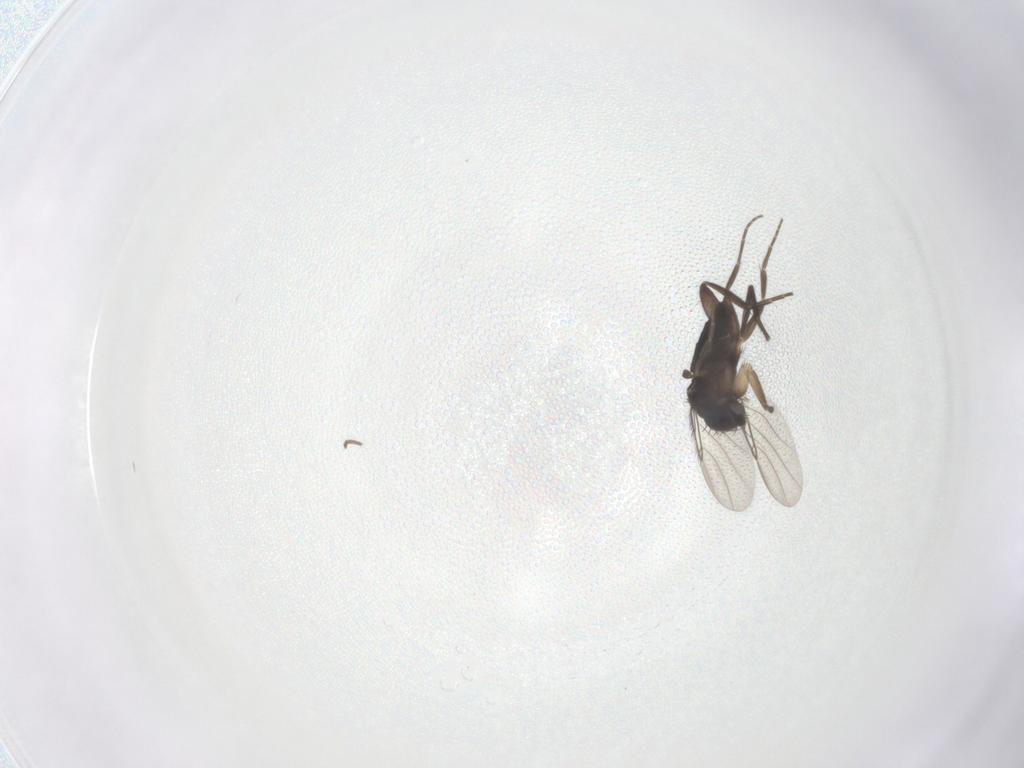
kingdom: Animalia
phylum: Arthropoda
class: Insecta
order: Diptera
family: Phoridae
